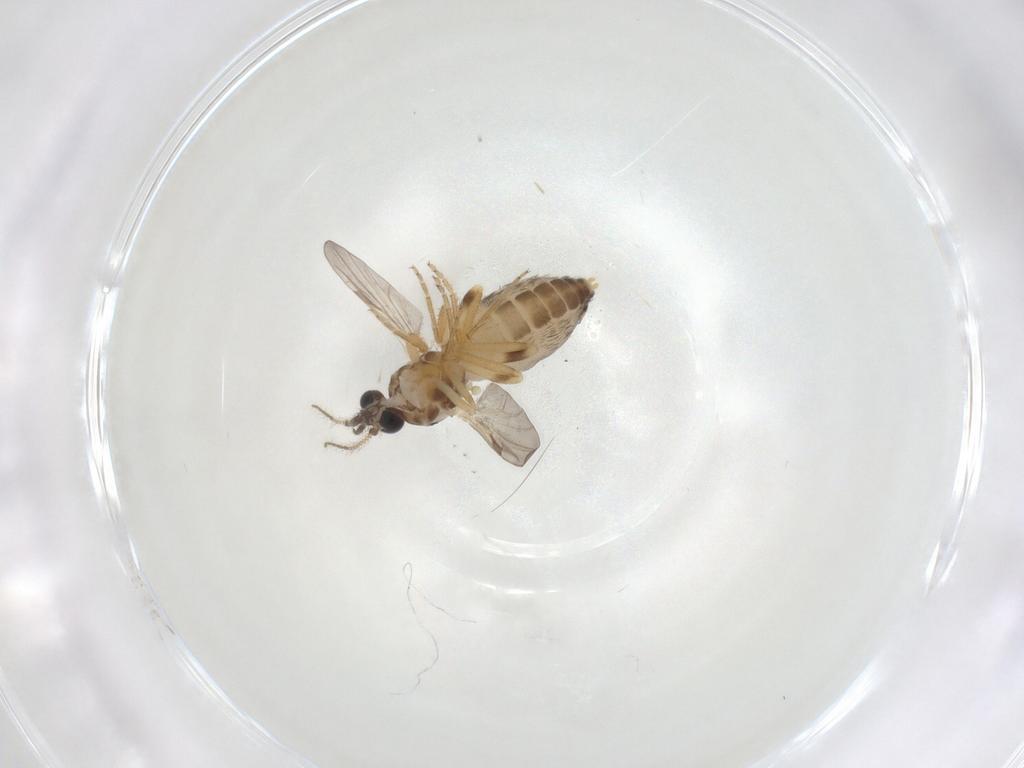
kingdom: Animalia
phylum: Arthropoda
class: Insecta
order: Diptera
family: Ceratopogonidae
